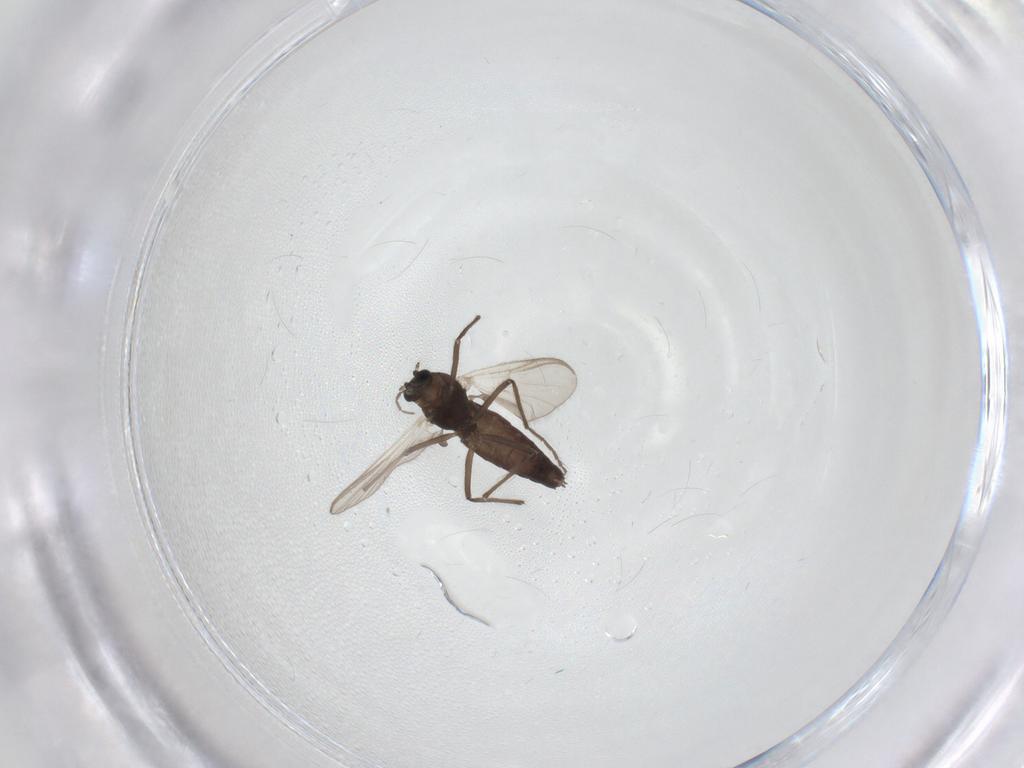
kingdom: Animalia
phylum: Arthropoda
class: Insecta
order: Diptera
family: Chironomidae
